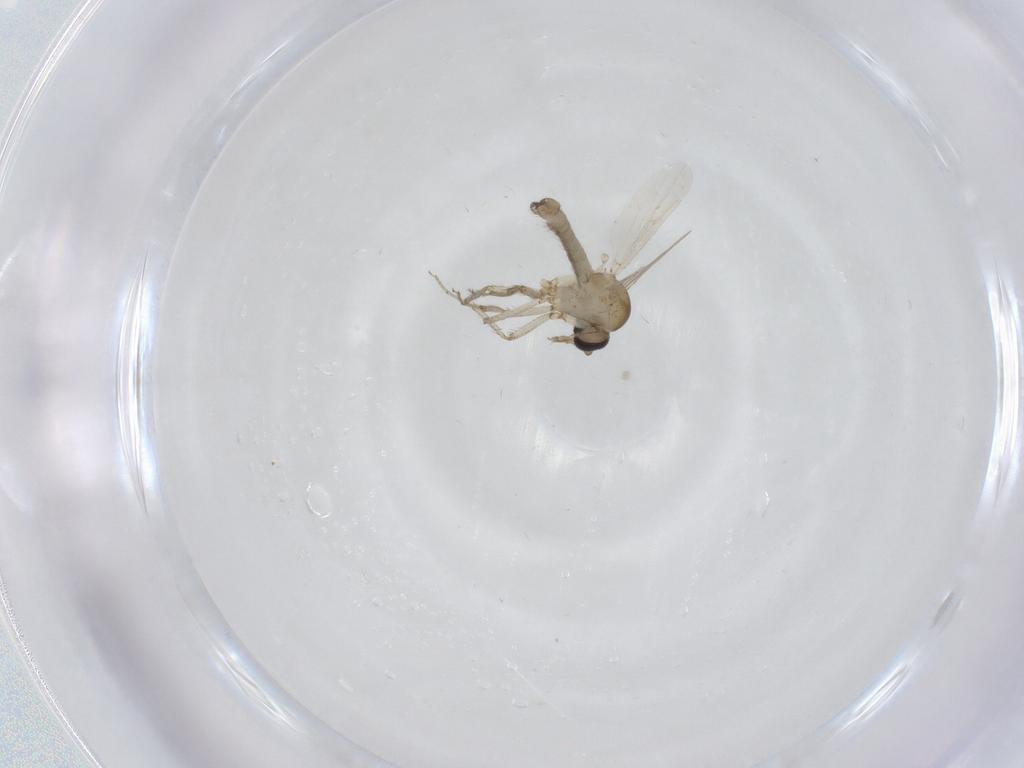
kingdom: Animalia
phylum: Arthropoda
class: Insecta
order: Diptera
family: Ceratopogonidae
